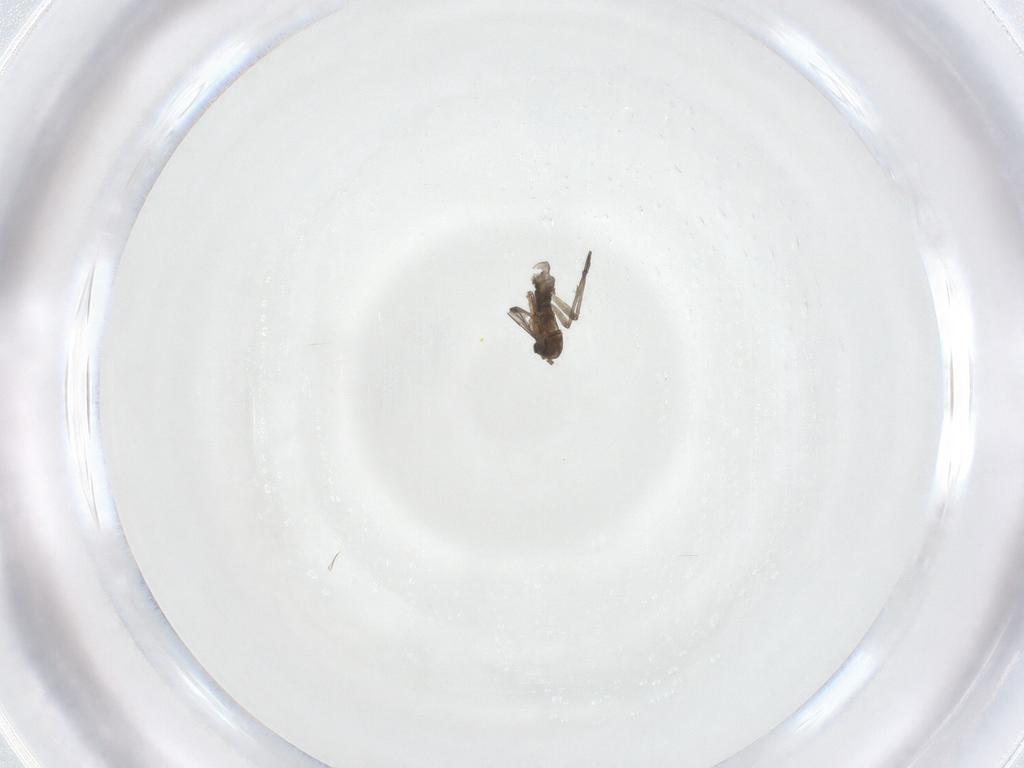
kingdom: Animalia
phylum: Arthropoda
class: Insecta
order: Diptera
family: Sciaridae
